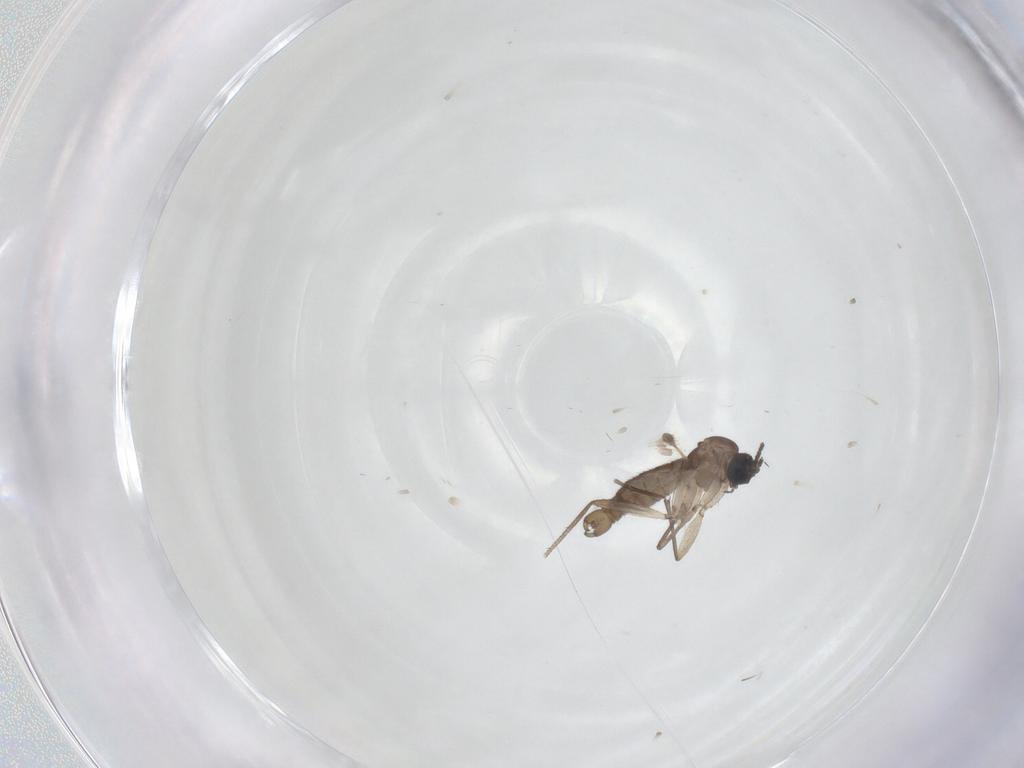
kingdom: Animalia
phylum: Arthropoda
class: Insecta
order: Diptera
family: Sciaridae
